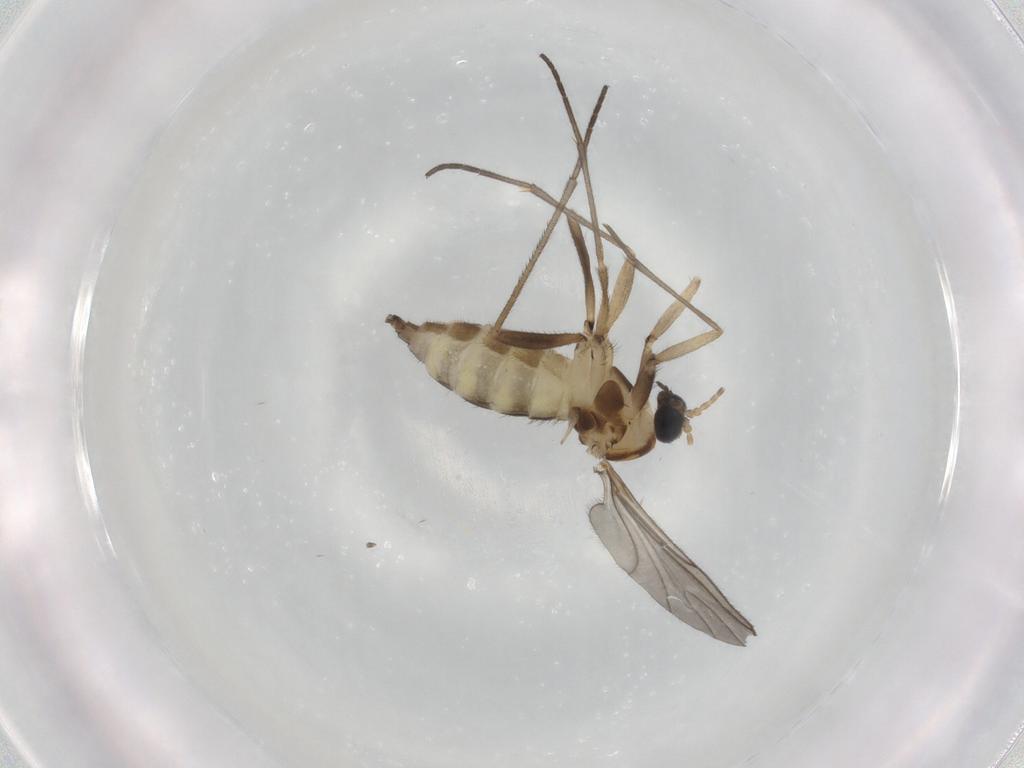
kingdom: Animalia
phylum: Arthropoda
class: Insecta
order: Diptera
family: Sciaridae
